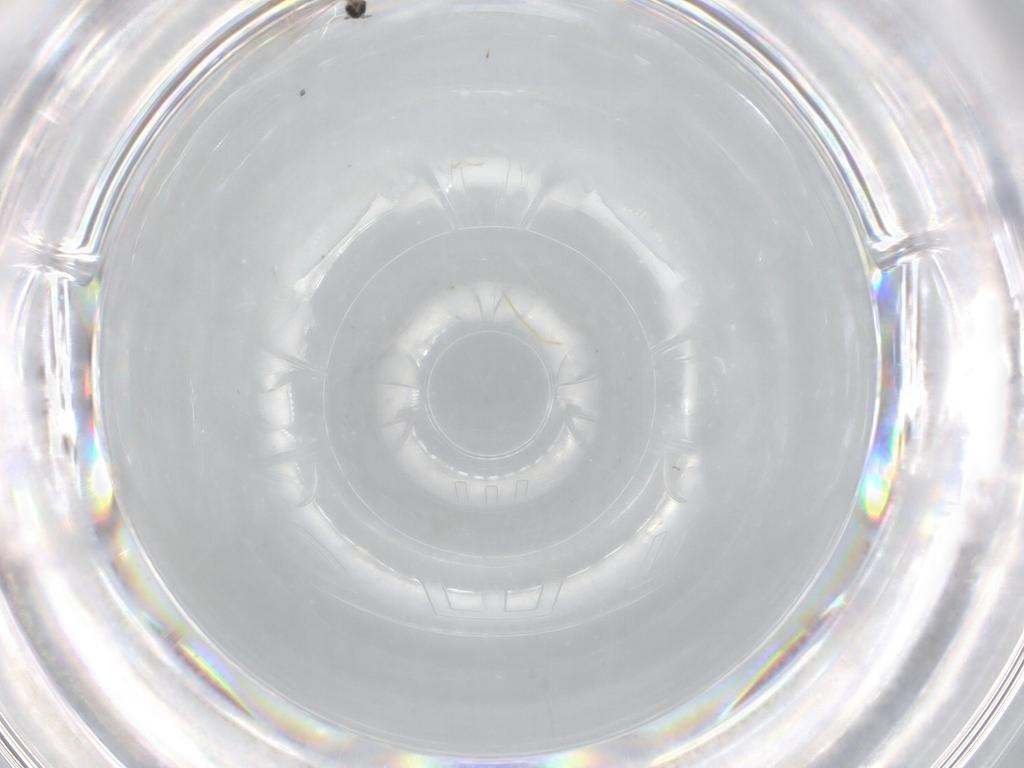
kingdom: Animalia
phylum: Arthropoda
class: Insecta
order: Diptera
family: Cecidomyiidae
